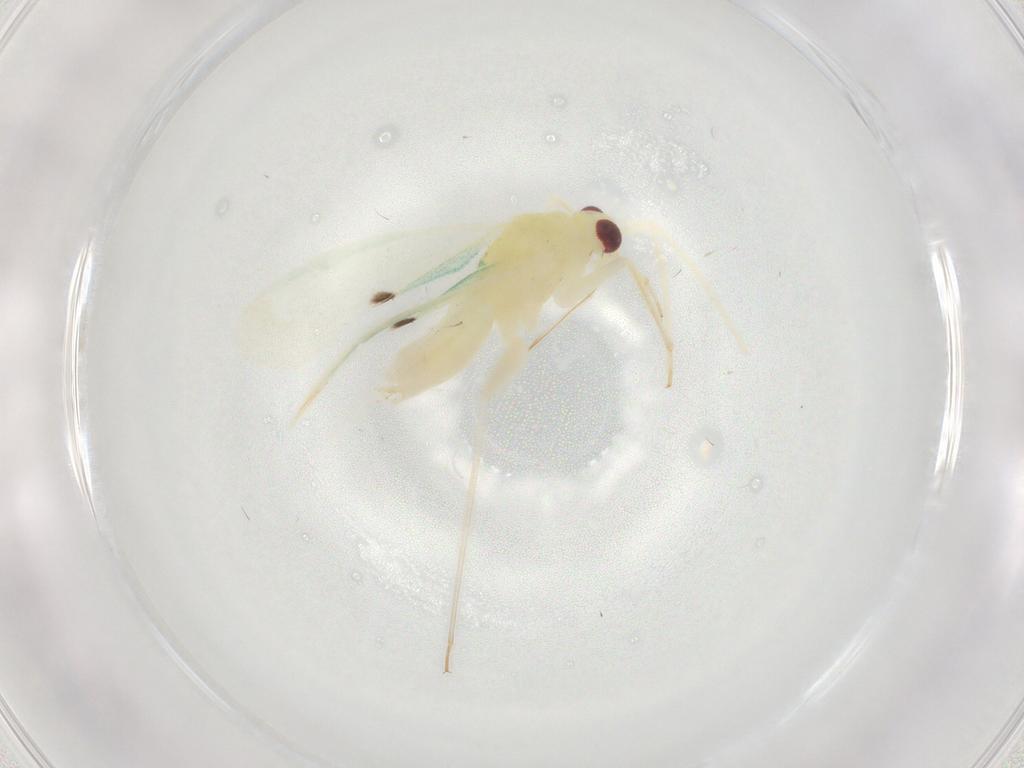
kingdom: Animalia
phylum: Arthropoda
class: Insecta
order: Hemiptera
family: Miridae
